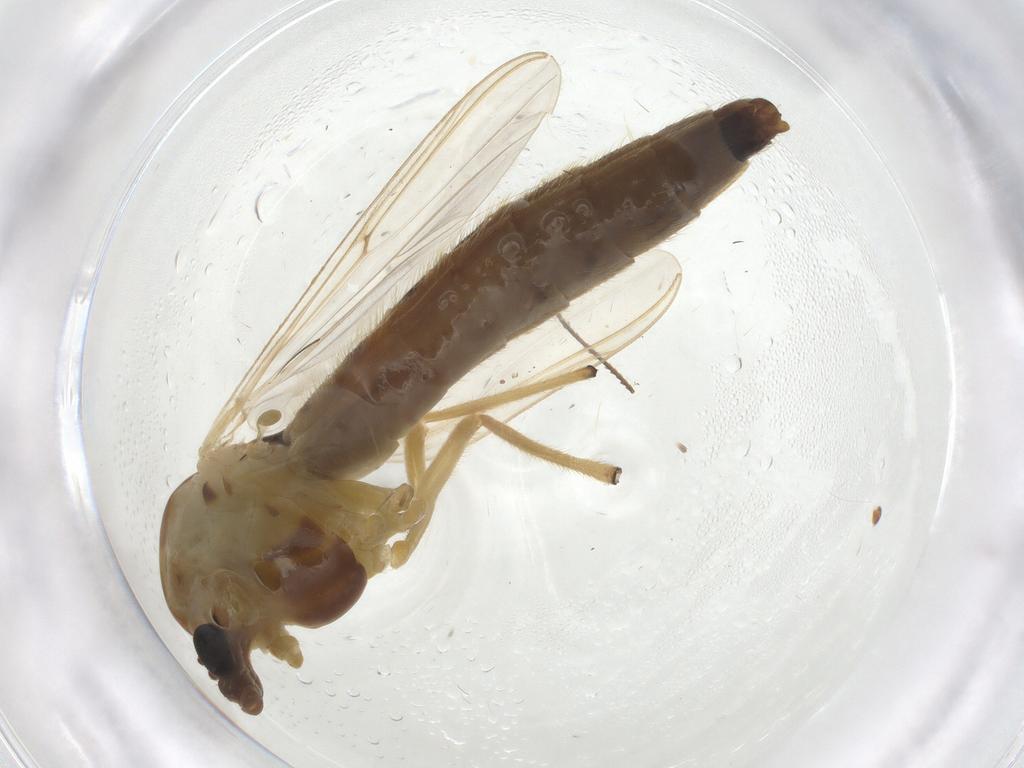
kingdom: Animalia
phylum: Arthropoda
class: Insecta
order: Diptera
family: Chironomidae
